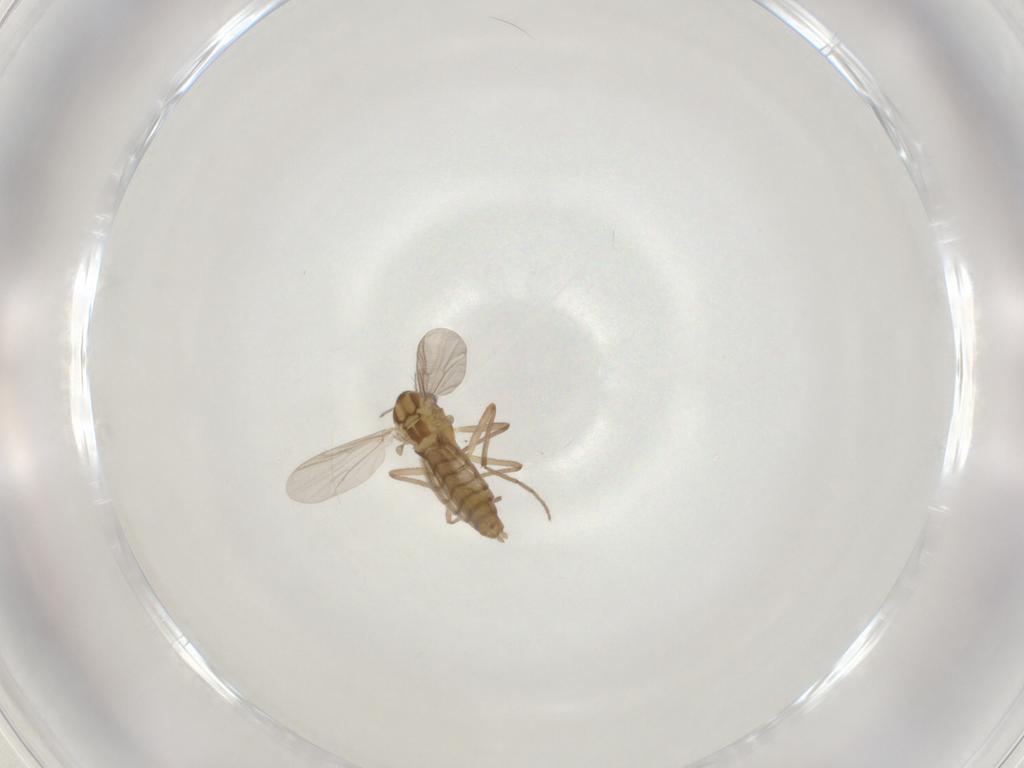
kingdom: Animalia
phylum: Arthropoda
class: Insecta
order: Diptera
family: Chironomidae
